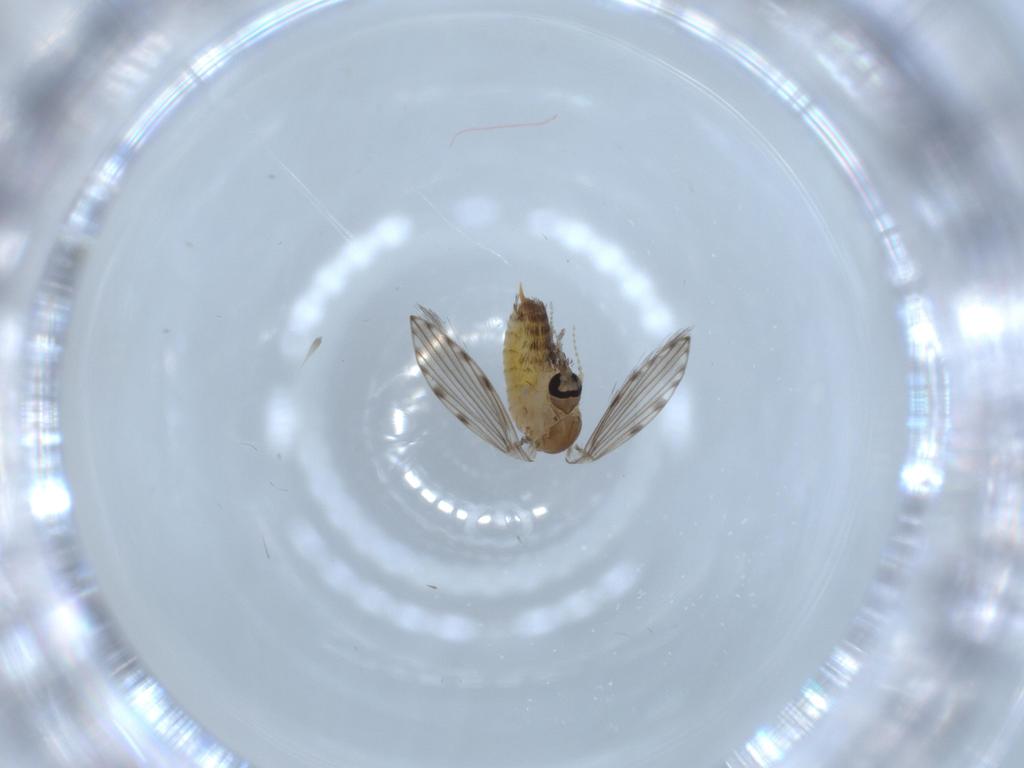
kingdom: Animalia
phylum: Arthropoda
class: Insecta
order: Diptera
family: Psychodidae
